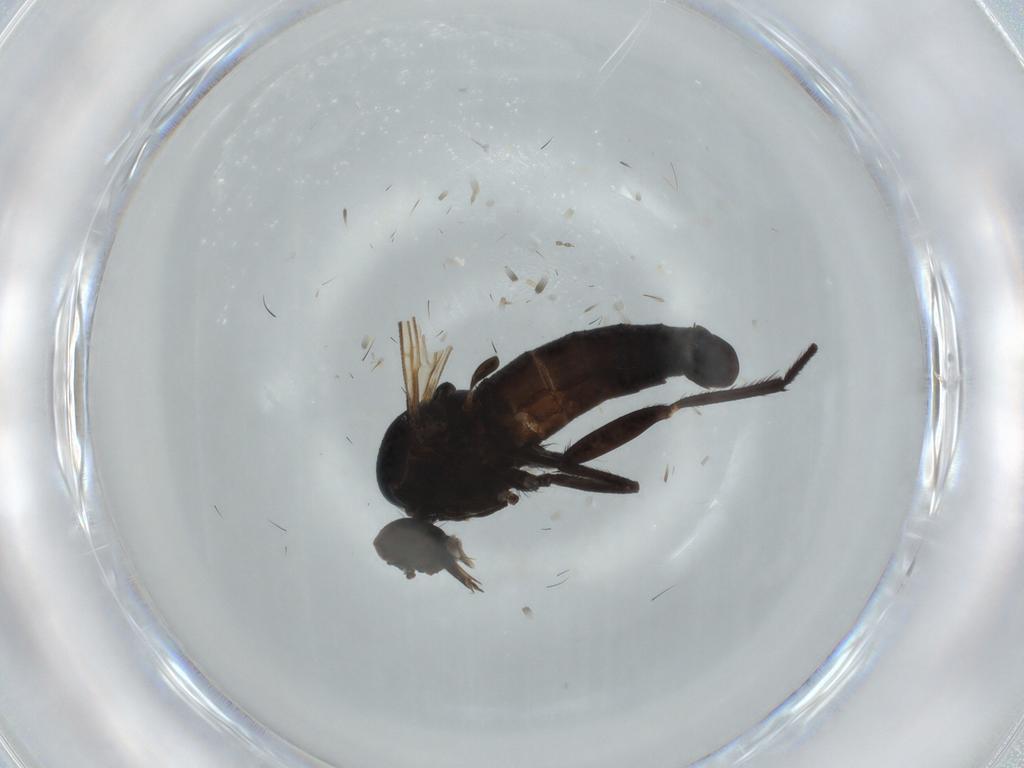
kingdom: Animalia
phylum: Arthropoda
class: Insecta
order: Diptera
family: Empididae
